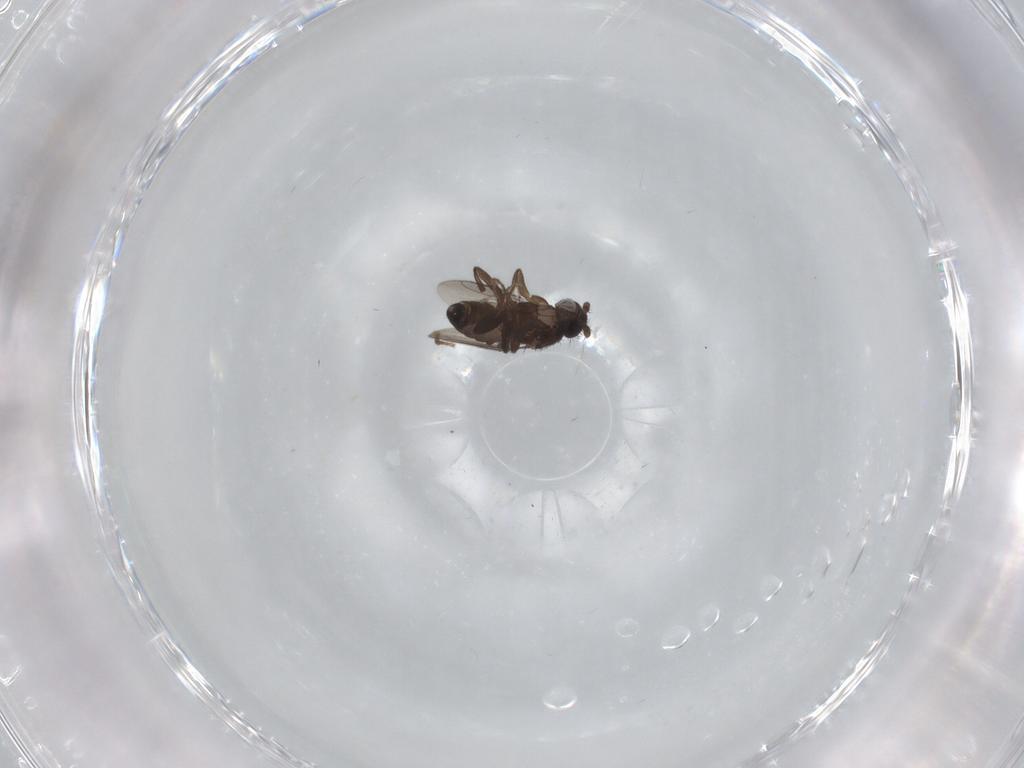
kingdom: Animalia
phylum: Arthropoda
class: Insecta
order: Diptera
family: Sphaeroceridae
